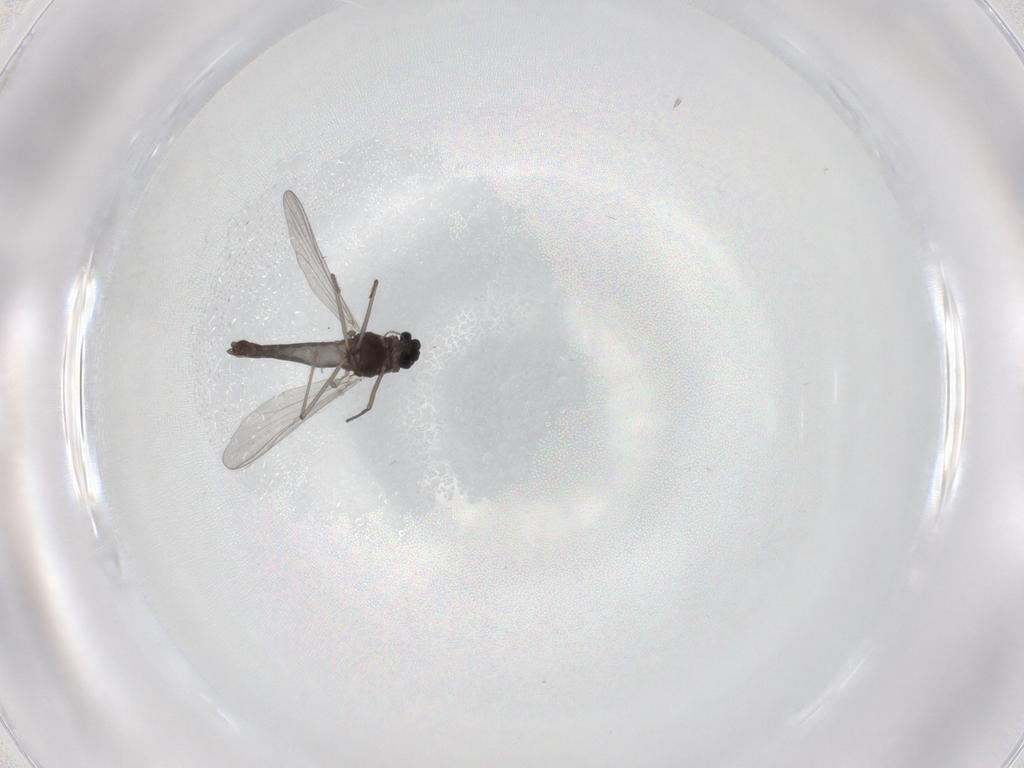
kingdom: Animalia
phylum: Arthropoda
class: Insecta
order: Diptera
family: Chironomidae
